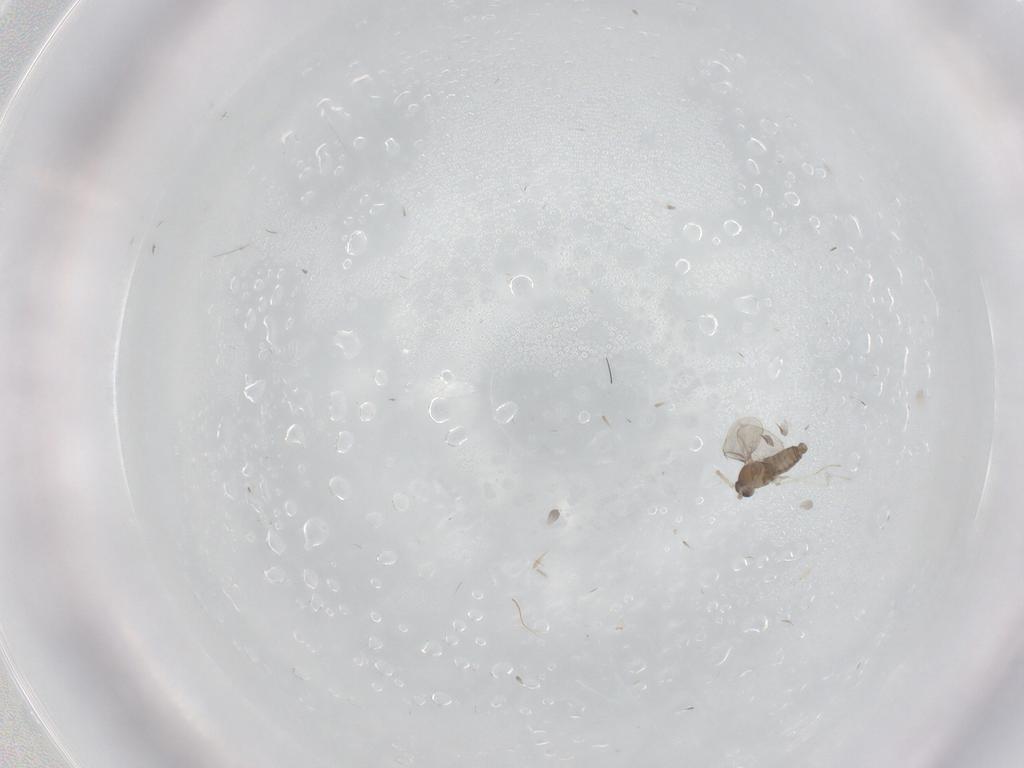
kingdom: Animalia
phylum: Arthropoda
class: Insecta
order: Diptera
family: Cecidomyiidae
